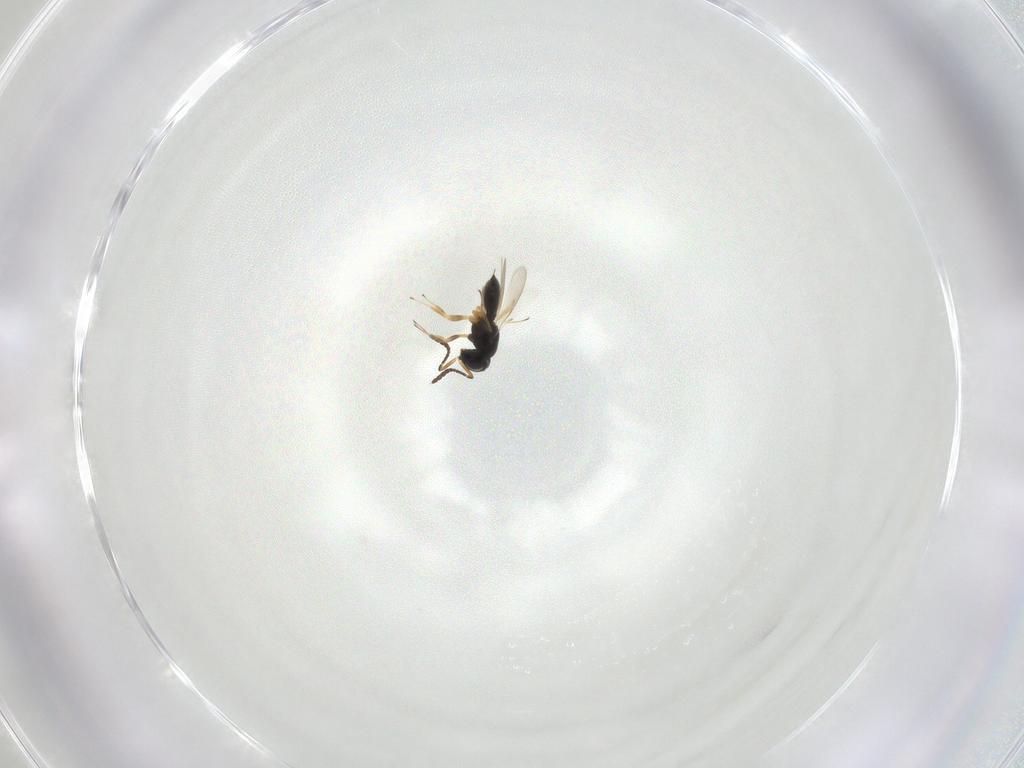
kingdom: Animalia
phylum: Arthropoda
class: Insecta
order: Hymenoptera
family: Scelionidae
